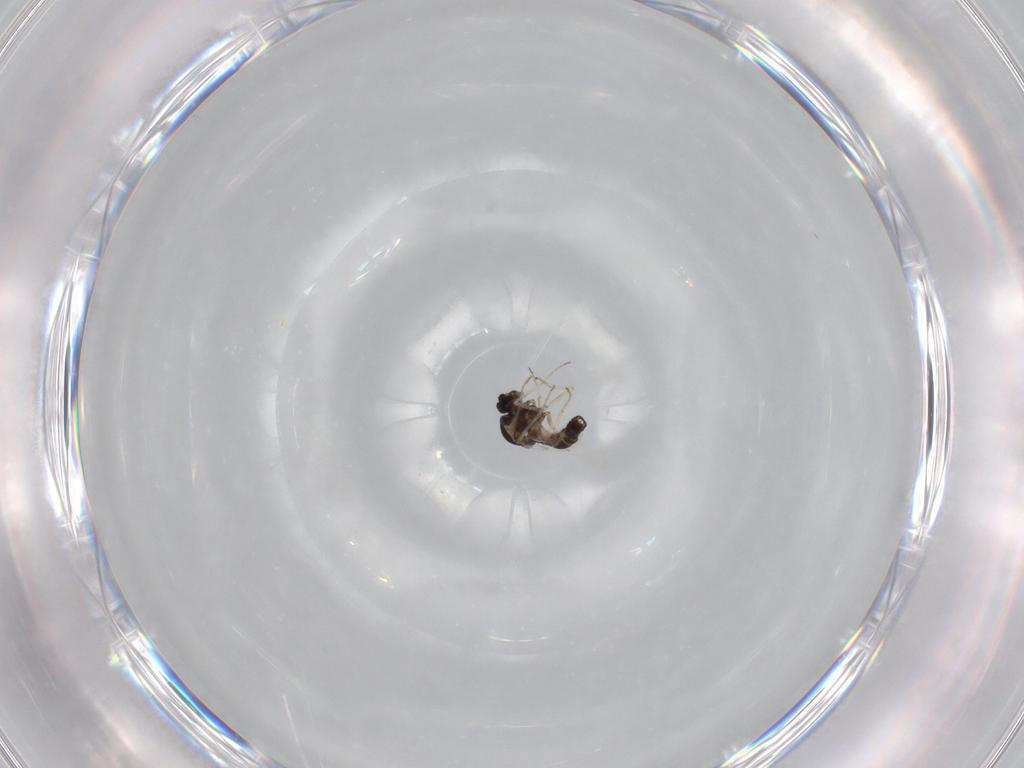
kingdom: Animalia
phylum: Arthropoda
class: Insecta
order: Diptera
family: Ceratopogonidae
